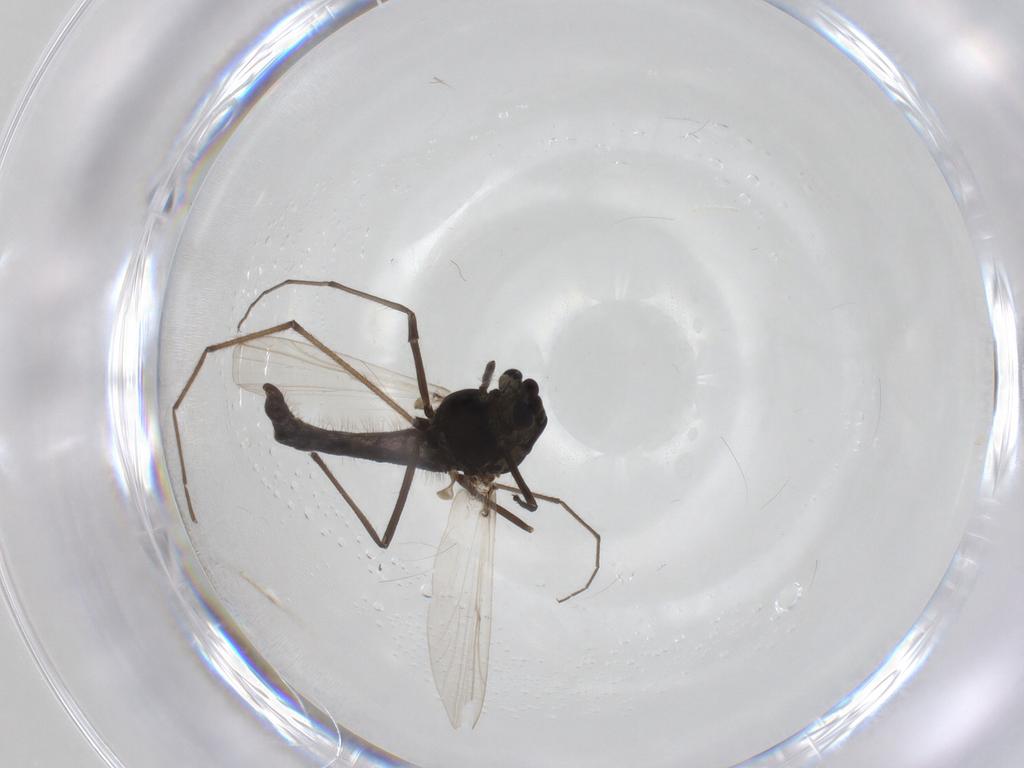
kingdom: Animalia
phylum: Arthropoda
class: Insecta
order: Diptera
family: Chironomidae
